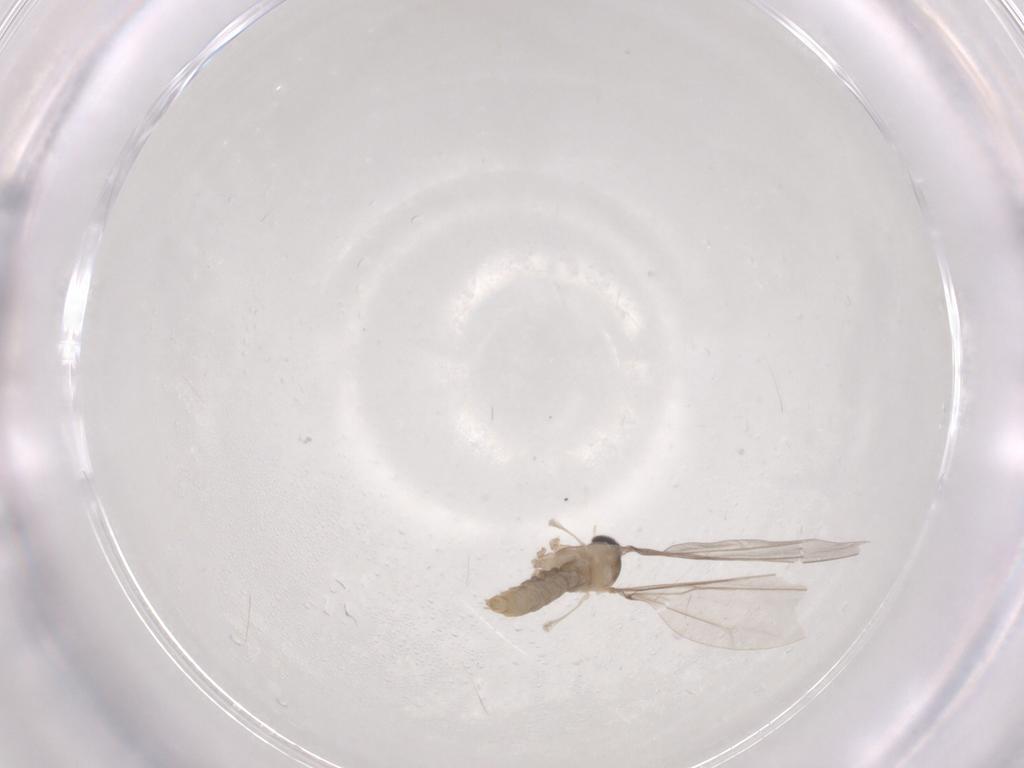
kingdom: Animalia
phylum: Arthropoda
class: Insecta
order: Diptera
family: Cecidomyiidae
